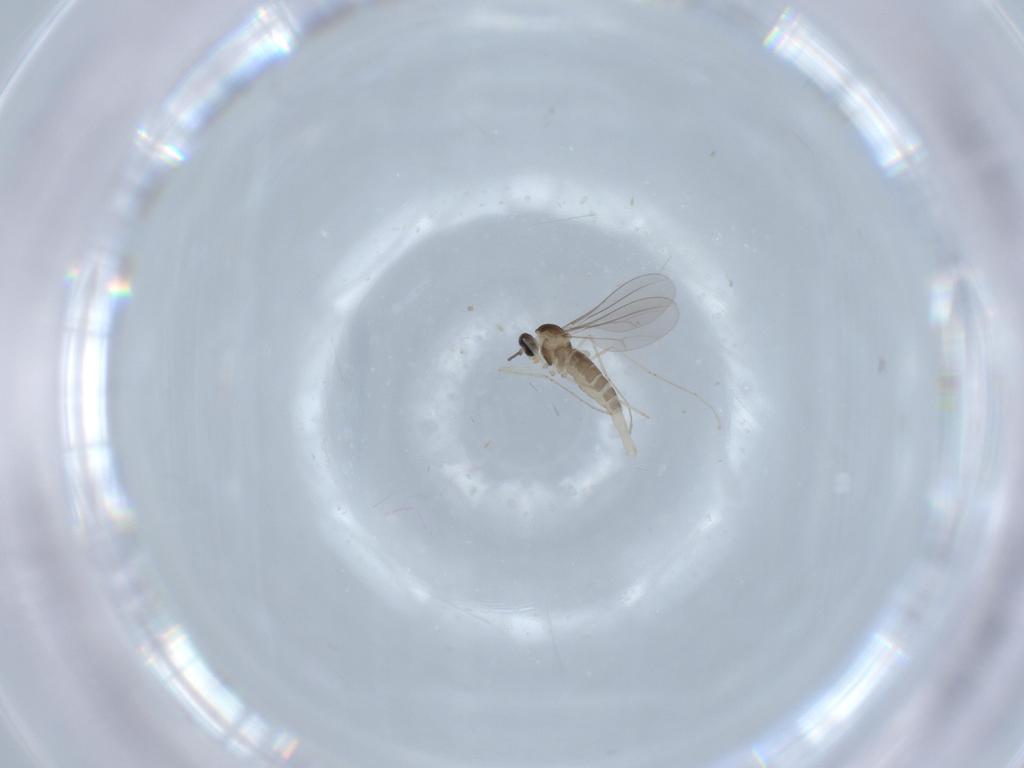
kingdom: Animalia
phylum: Arthropoda
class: Insecta
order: Diptera
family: Cecidomyiidae
